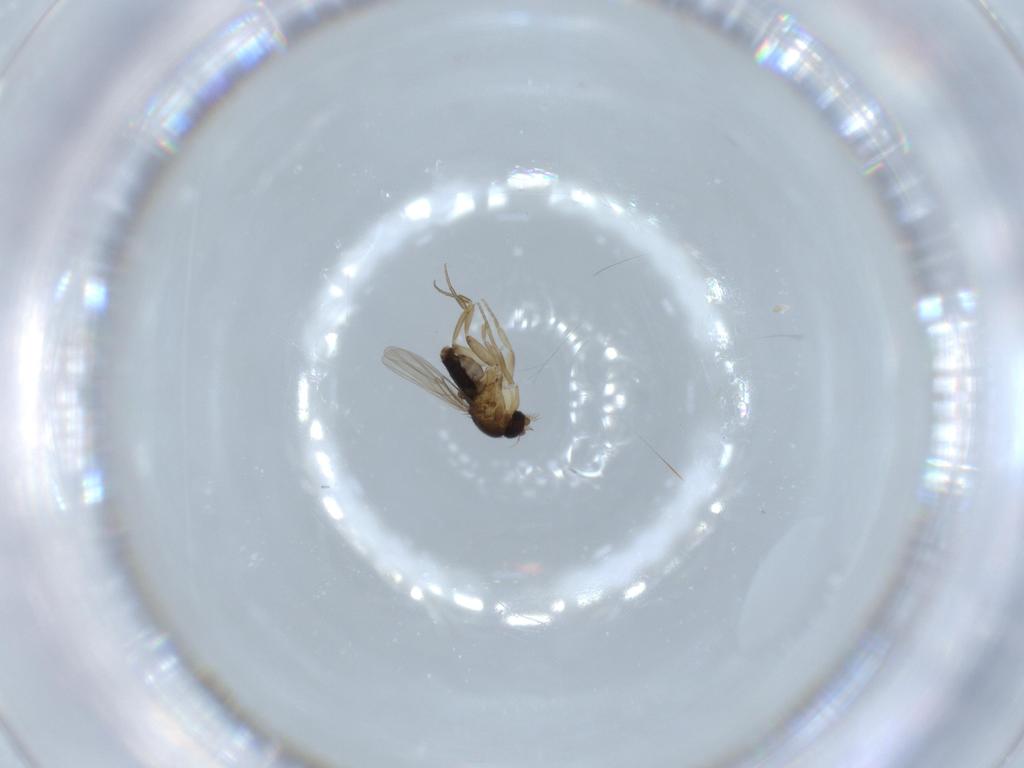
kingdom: Animalia
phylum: Arthropoda
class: Insecta
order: Diptera
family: Phoridae
